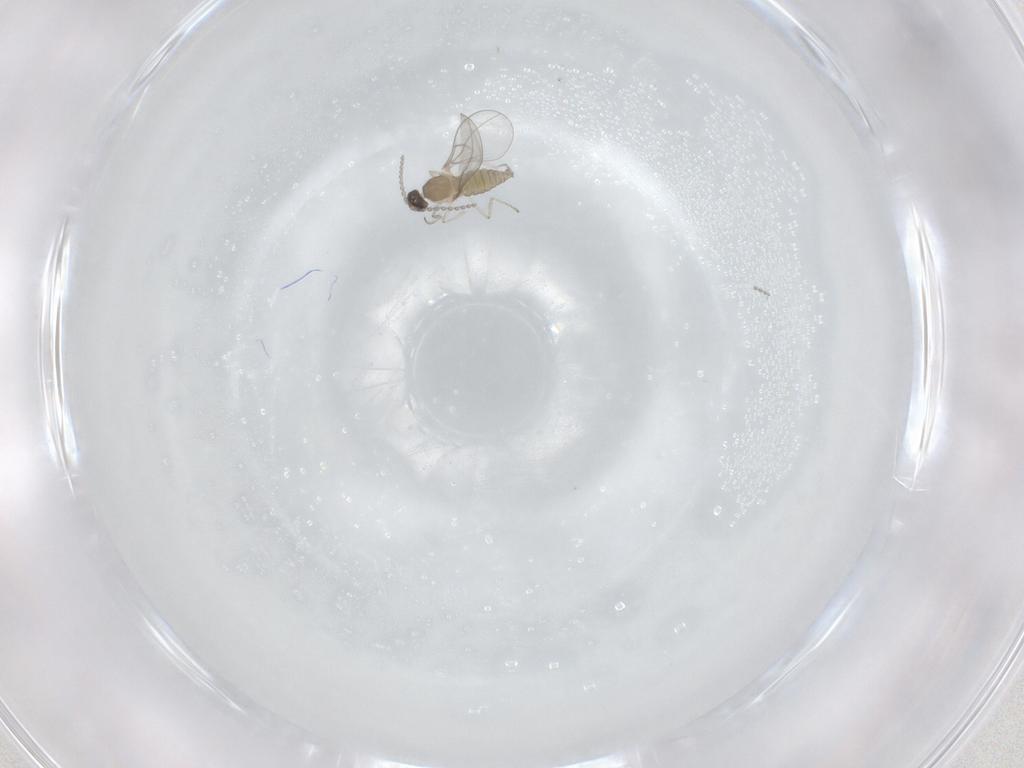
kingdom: Animalia
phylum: Arthropoda
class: Insecta
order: Diptera
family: Cecidomyiidae
